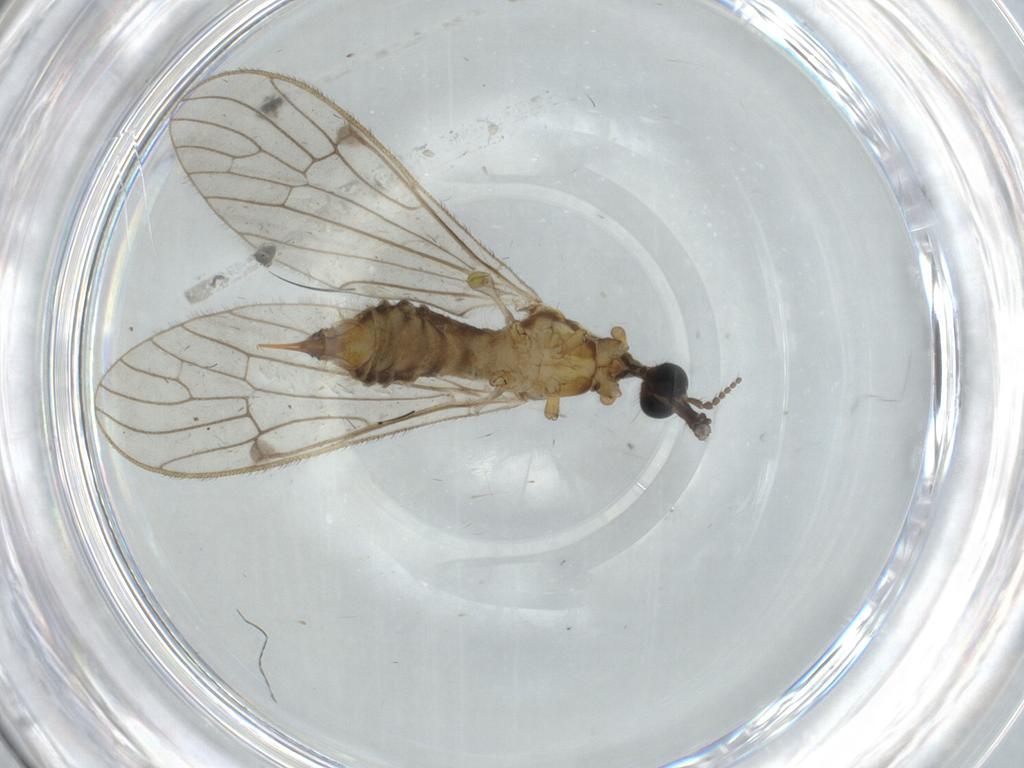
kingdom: Animalia
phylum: Arthropoda
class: Insecta
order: Diptera
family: Limoniidae
